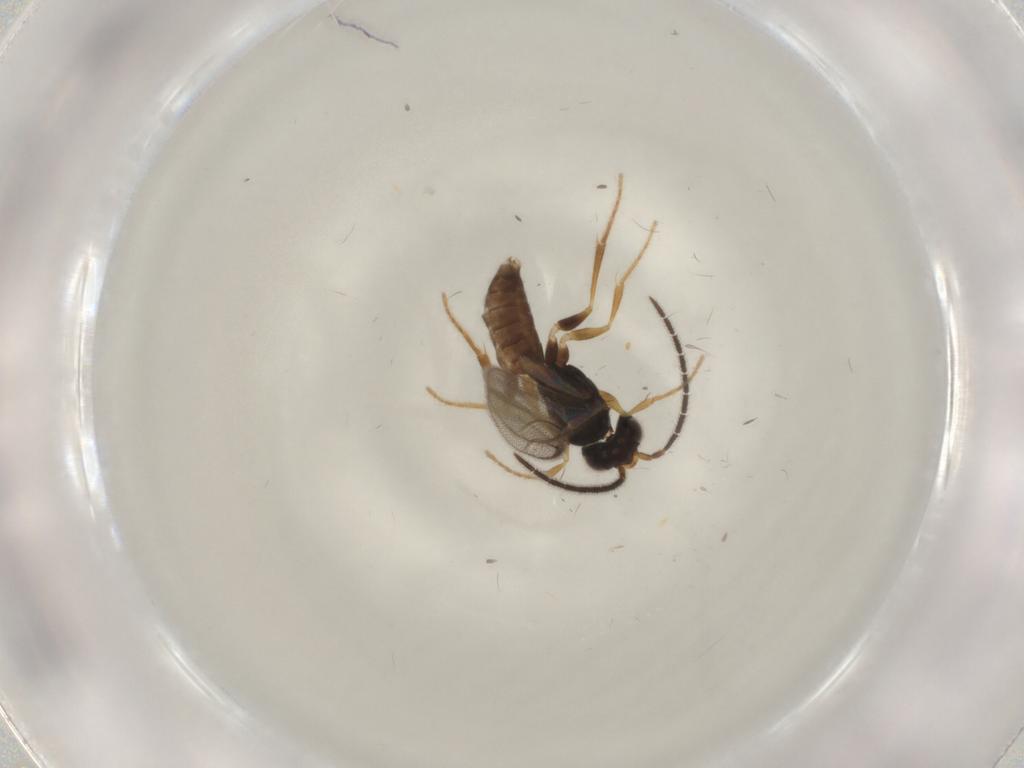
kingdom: Animalia
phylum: Arthropoda
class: Insecta
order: Hymenoptera
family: Dryinidae
